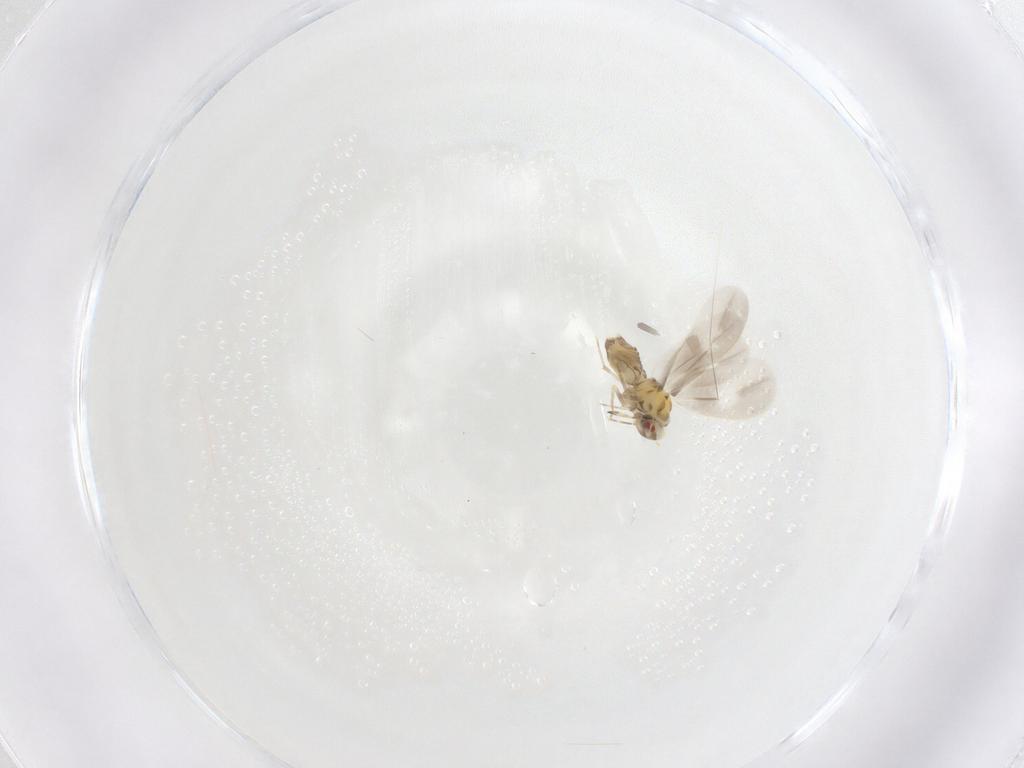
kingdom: Animalia
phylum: Arthropoda
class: Insecta
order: Diptera
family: Cecidomyiidae
